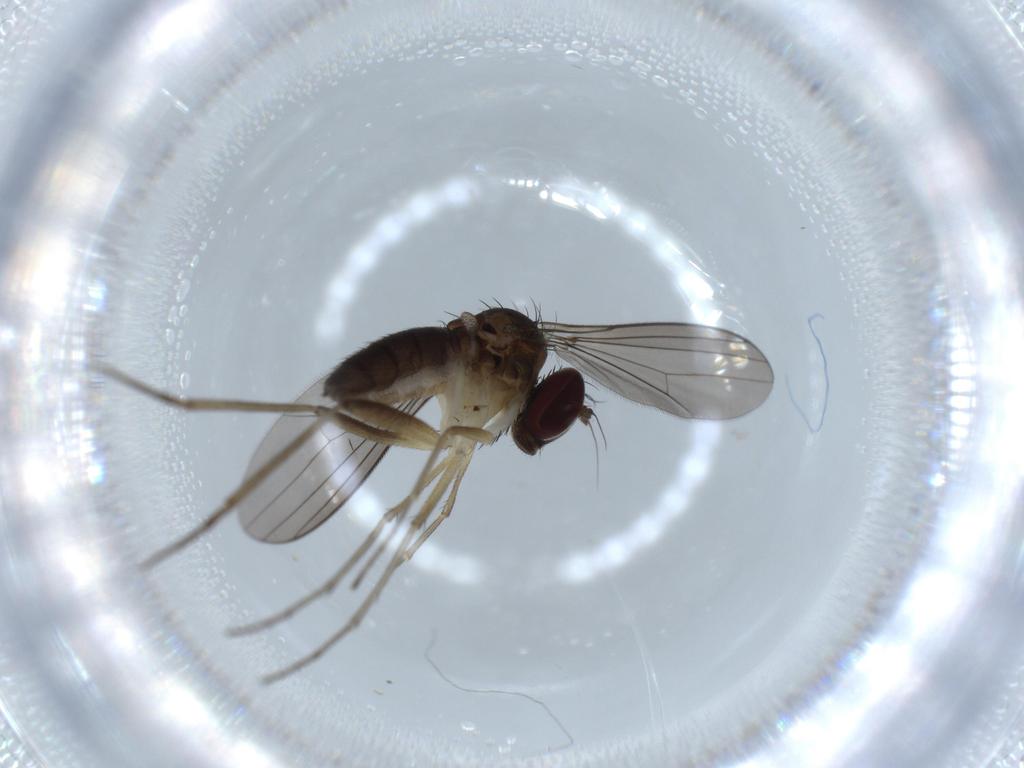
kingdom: Animalia
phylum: Arthropoda
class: Insecta
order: Diptera
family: Dolichopodidae
